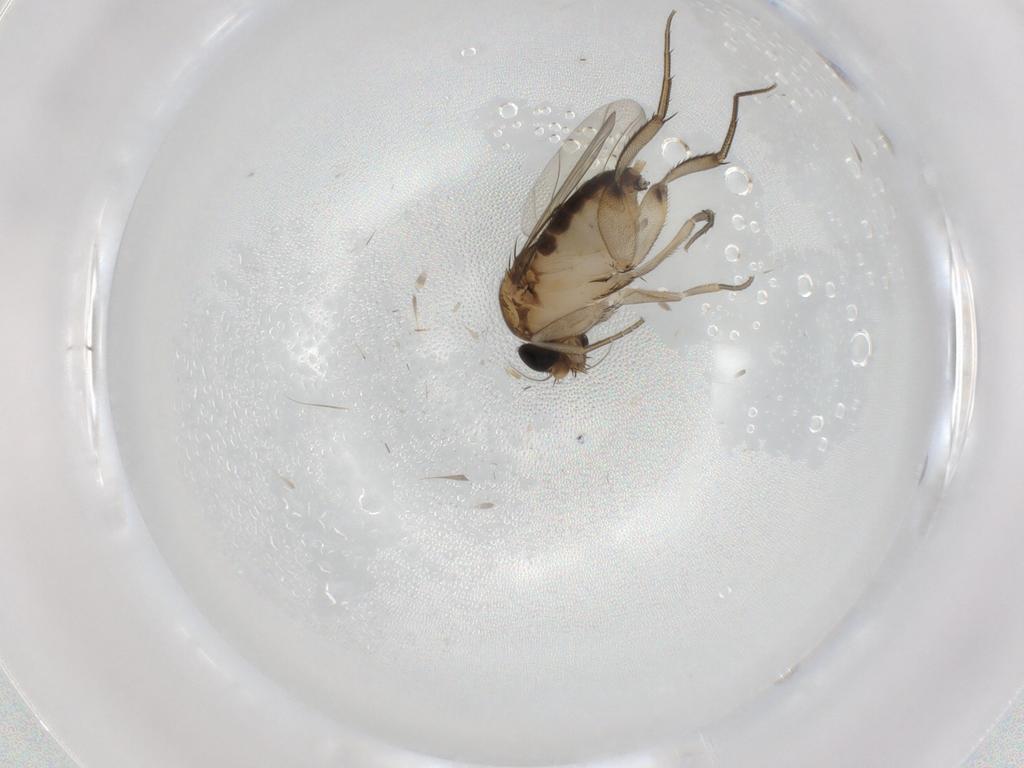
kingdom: Animalia
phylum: Arthropoda
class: Insecta
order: Diptera
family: Phoridae
